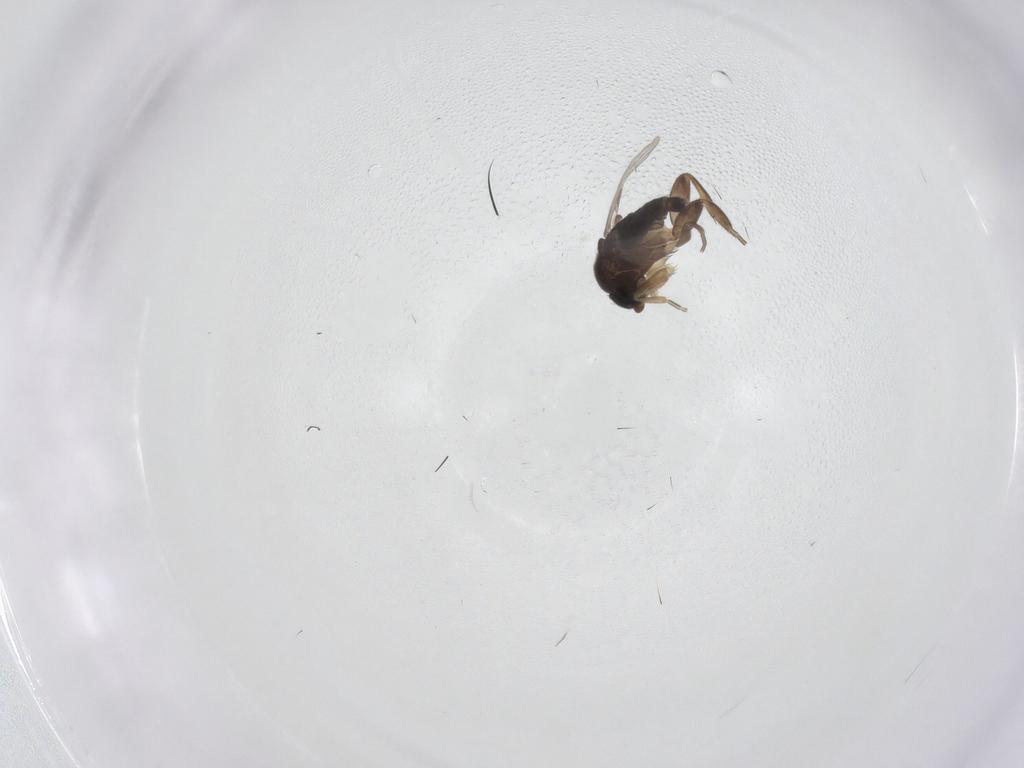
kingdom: Animalia
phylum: Arthropoda
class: Insecta
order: Diptera
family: Phoridae
